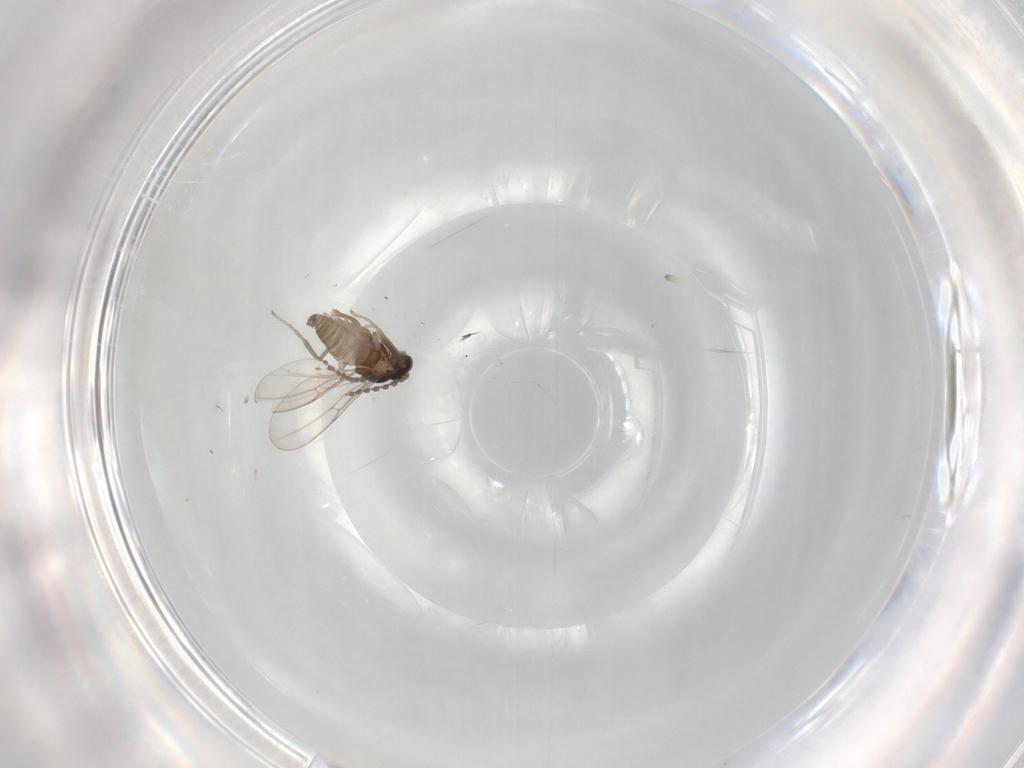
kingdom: Animalia
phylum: Arthropoda
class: Insecta
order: Diptera
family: Cecidomyiidae
